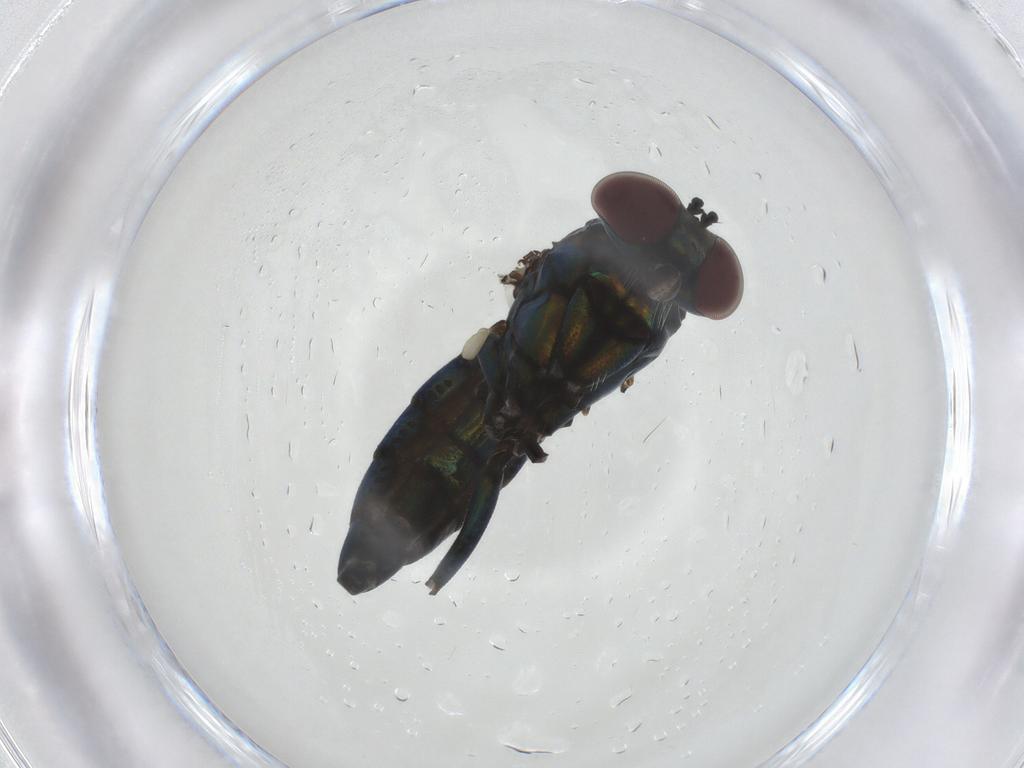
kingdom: Animalia
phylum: Arthropoda
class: Insecta
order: Diptera
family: Dolichopodidae
